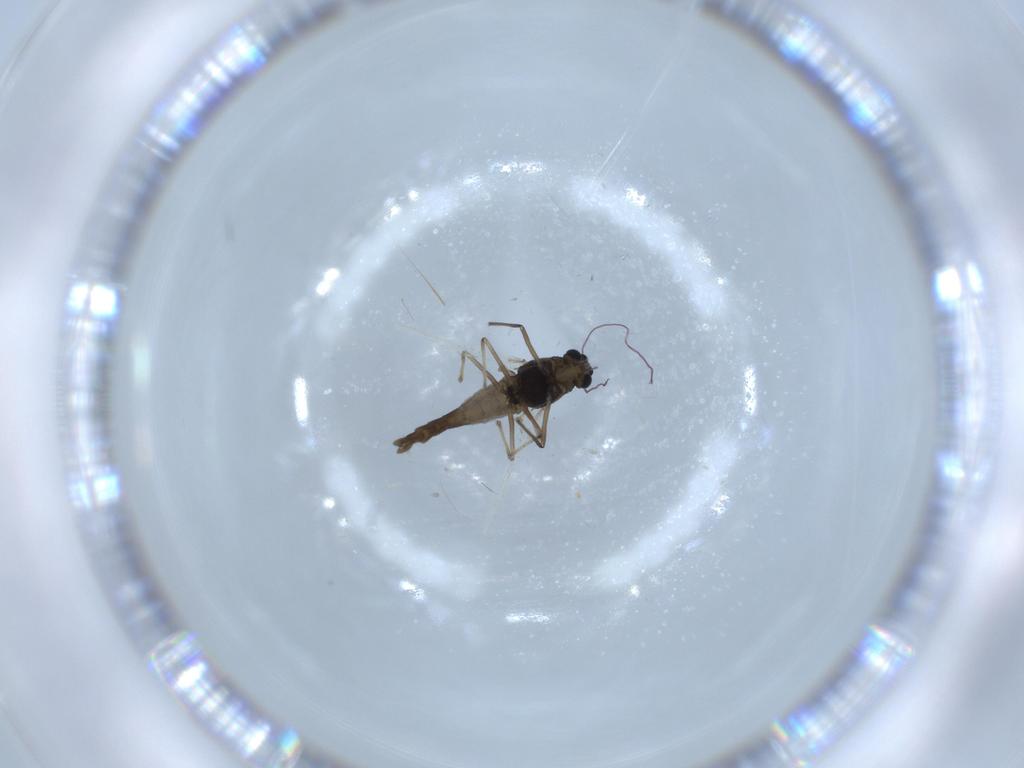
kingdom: Animalia
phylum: Arthropoda
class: Insecta
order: Diptera
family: Chironomidae
